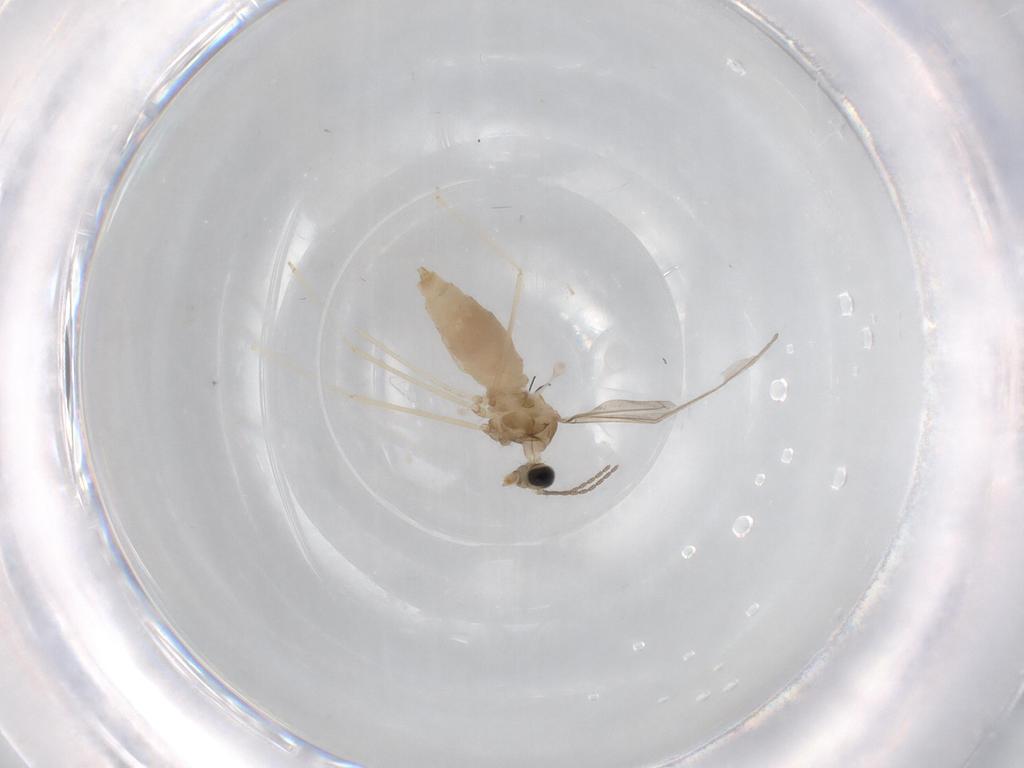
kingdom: Animalia
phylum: Arthropoda
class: Insecta
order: Diptera
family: Cecidomyiidae
